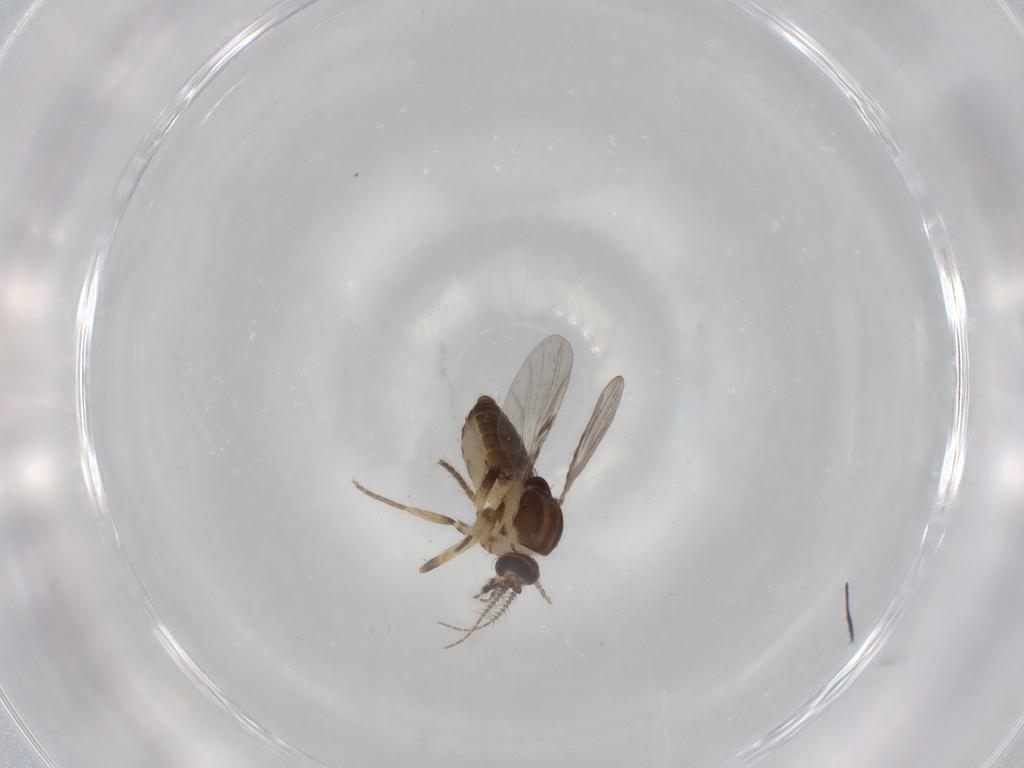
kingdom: Animalia
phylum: Arthropoda
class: Insecta
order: Diptera
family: Ceratopogonidae
